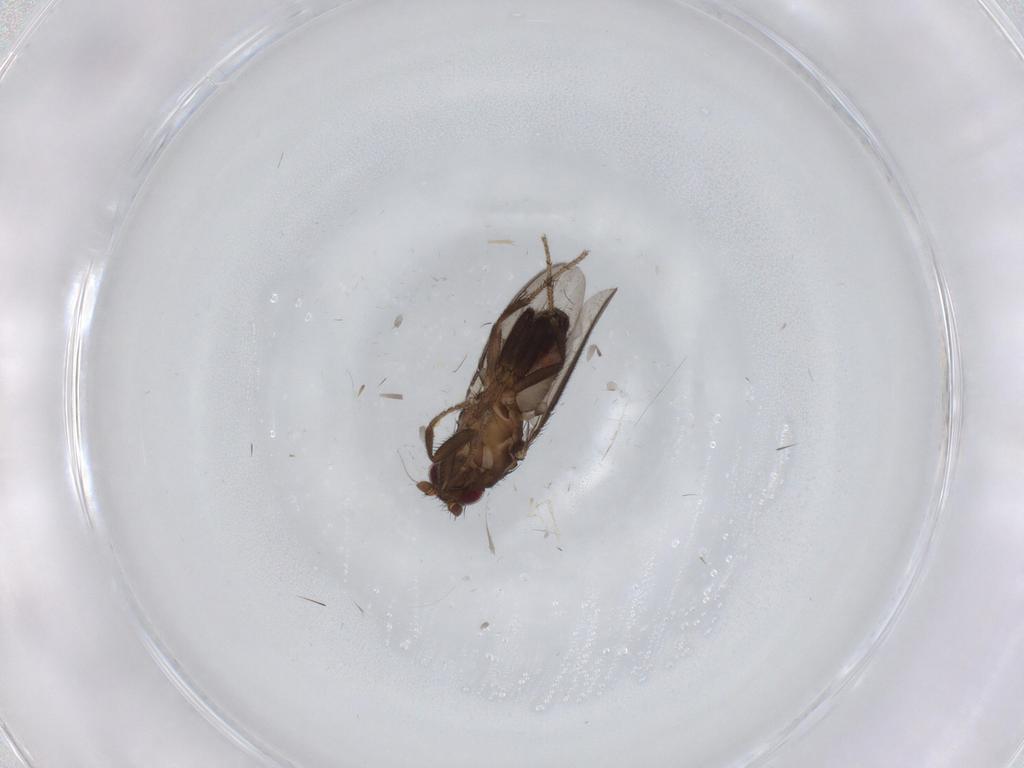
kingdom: Animalia
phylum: Arthropoda
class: Insecta
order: Diptera
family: Sphaeroceridae
